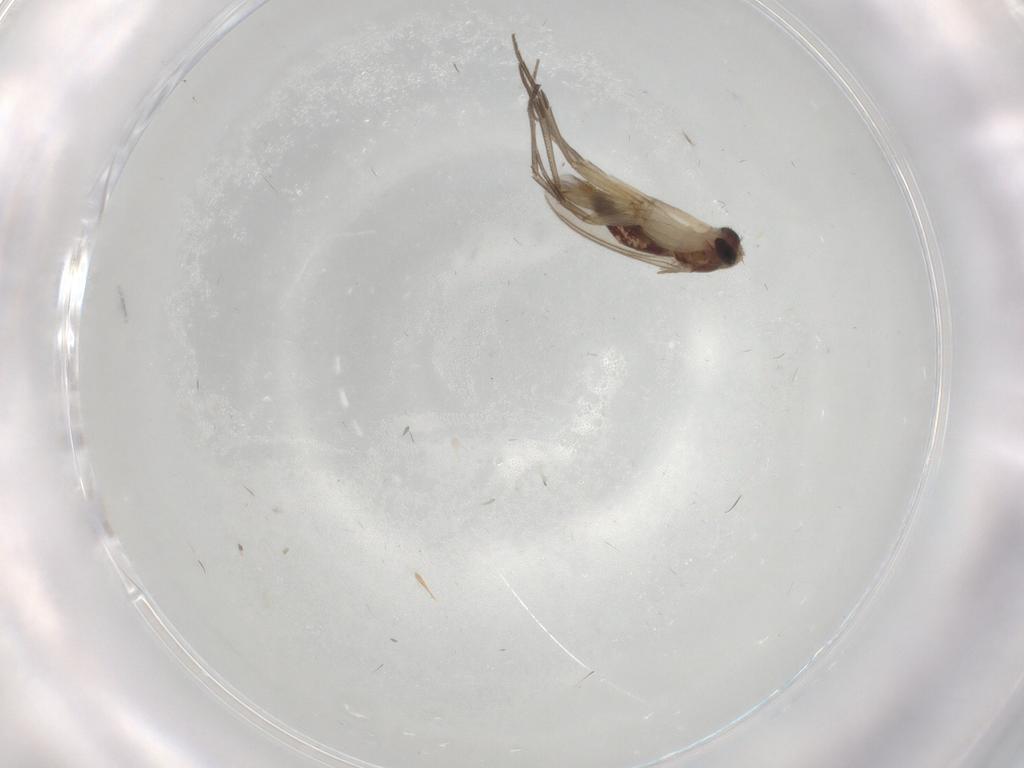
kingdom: Animalia
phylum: Arthropoda
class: Insecta
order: Diptera
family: Mycetophilidae
